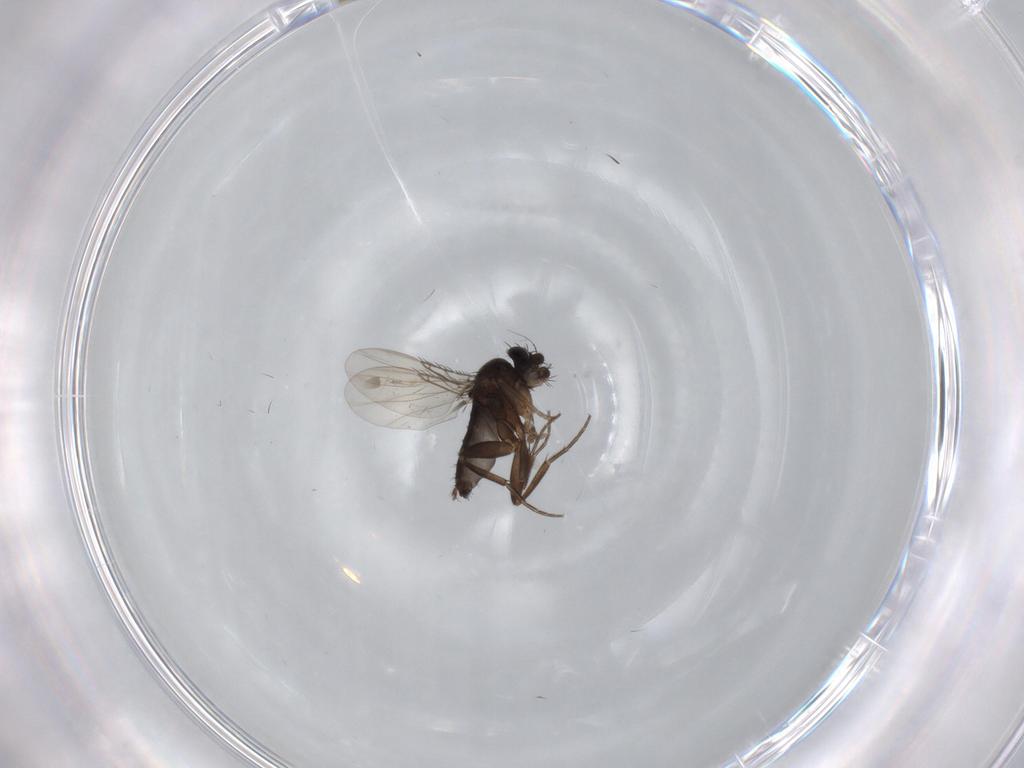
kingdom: Animalia
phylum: Arthropoda
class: Insecta
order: Diptera
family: Phoridae
